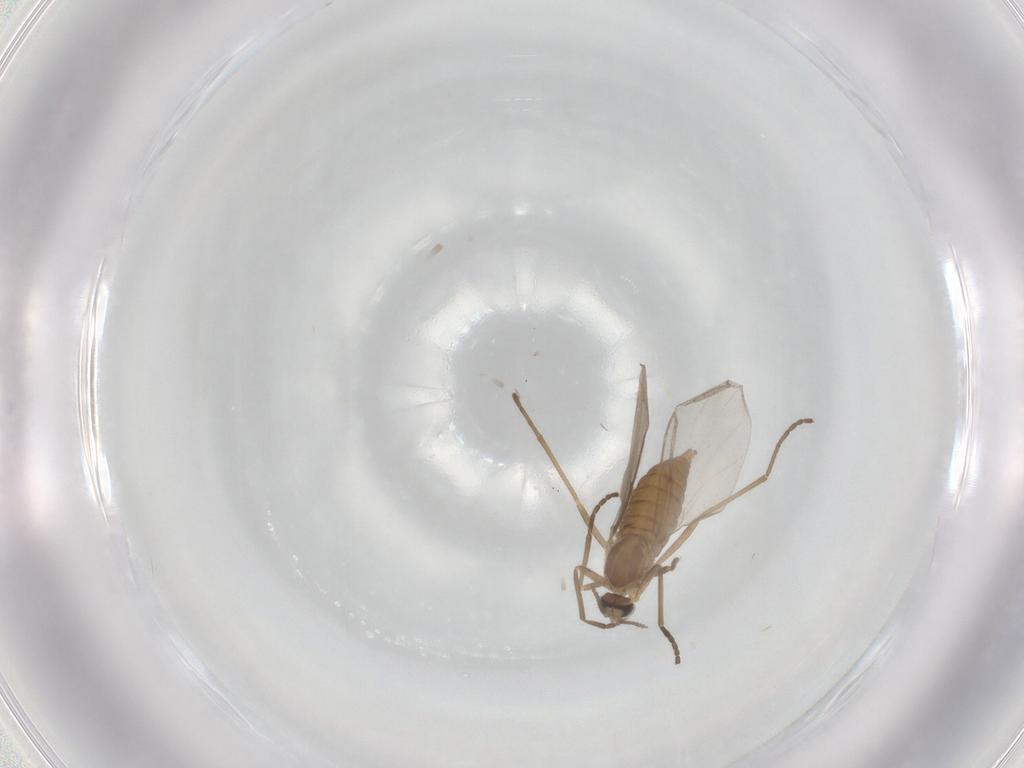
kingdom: Animalia
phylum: Arthropoda
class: Insecta
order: Diptera
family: Cecidomyiidae
